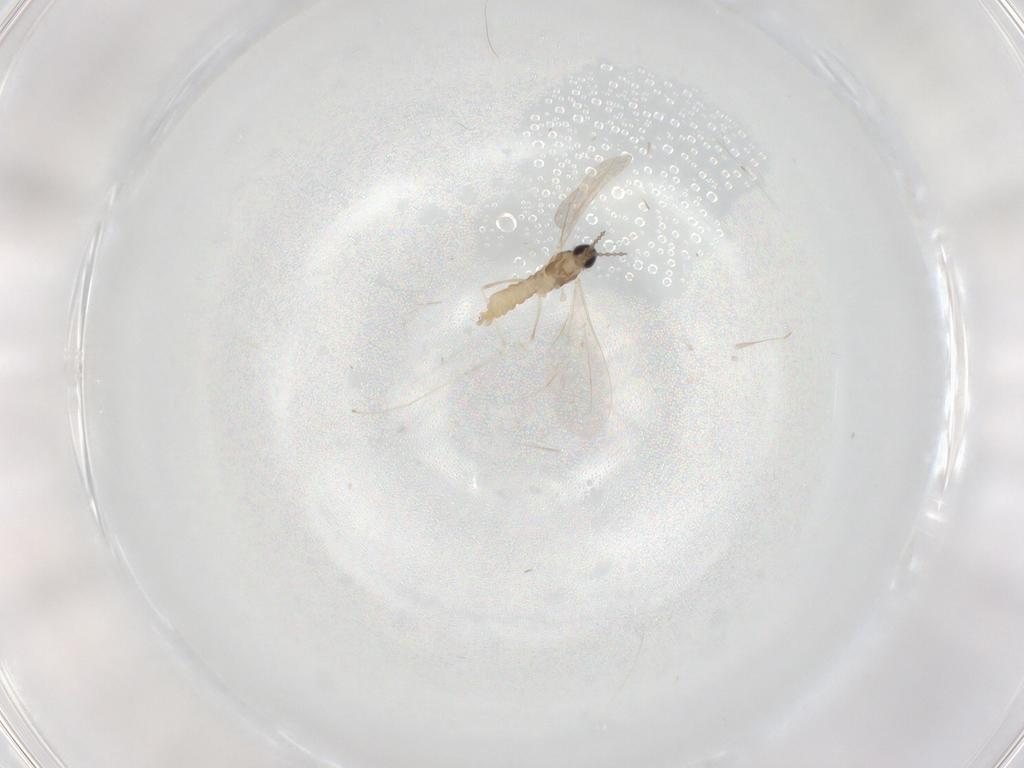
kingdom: Animalia
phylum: Arthropoda
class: Insecta
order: Diptera
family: Cecidomyiidae
